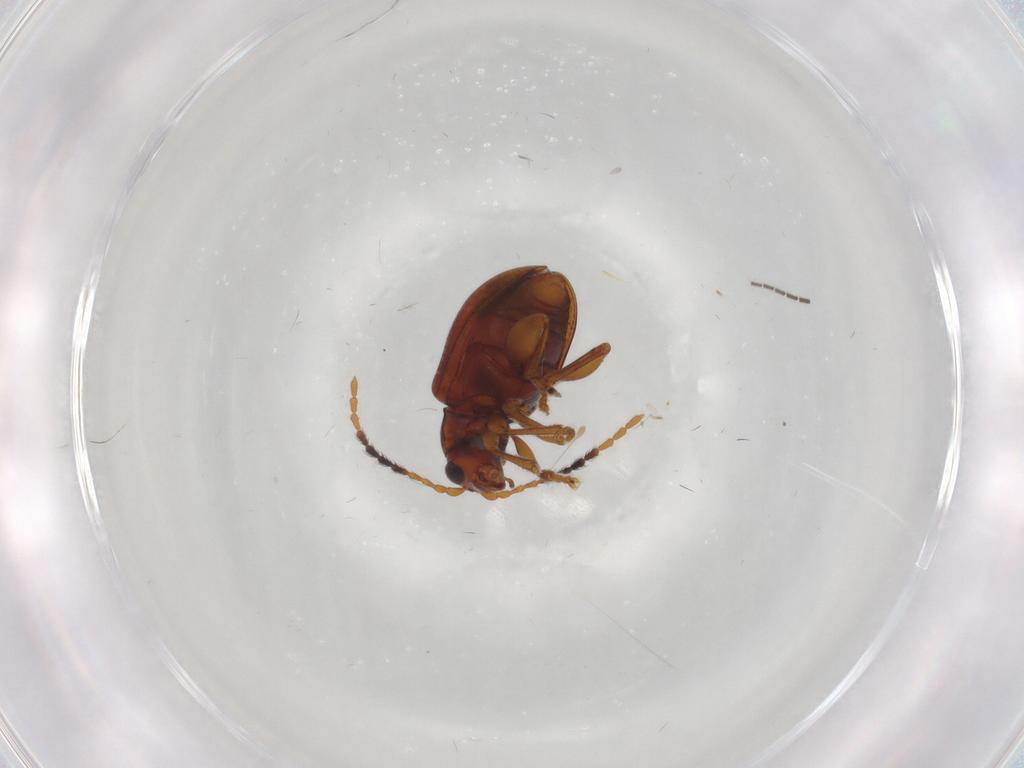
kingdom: Animalia
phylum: Arthropoda
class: Insecta
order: Coleoptera
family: Chrysomelidae
